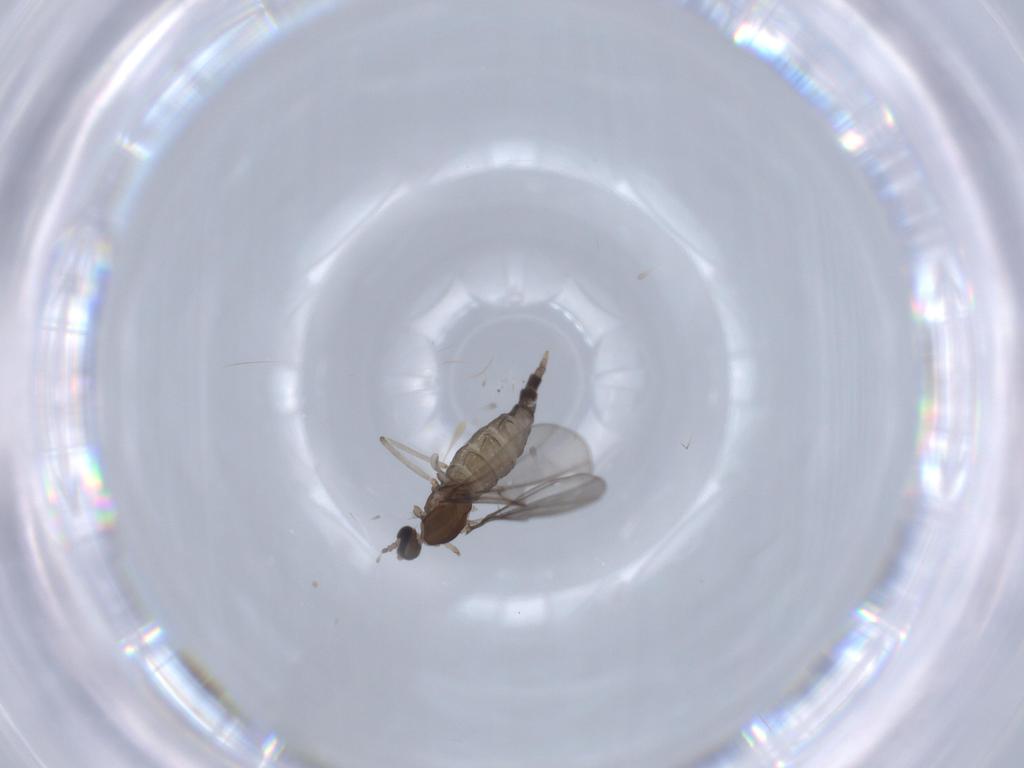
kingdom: Animalia
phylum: Arthropoda
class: Insecta
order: Diptera
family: Cecidomyiidae
